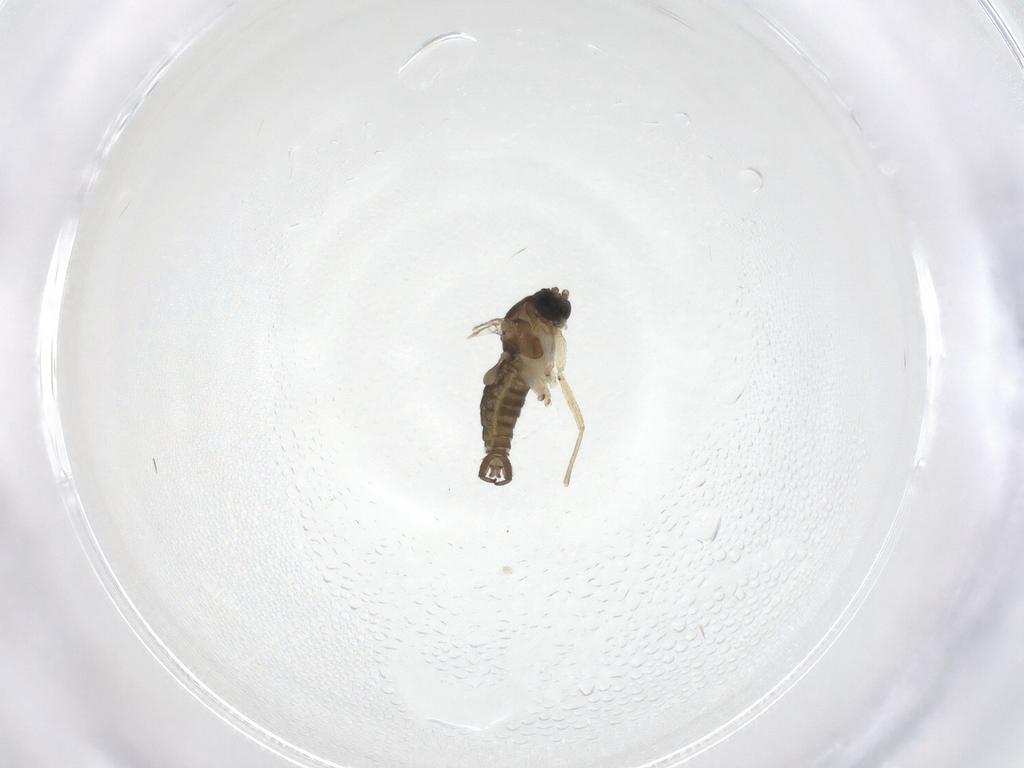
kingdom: Animalia
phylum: Arthropoda
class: Insecta
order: Diptera
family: Sciaridae
